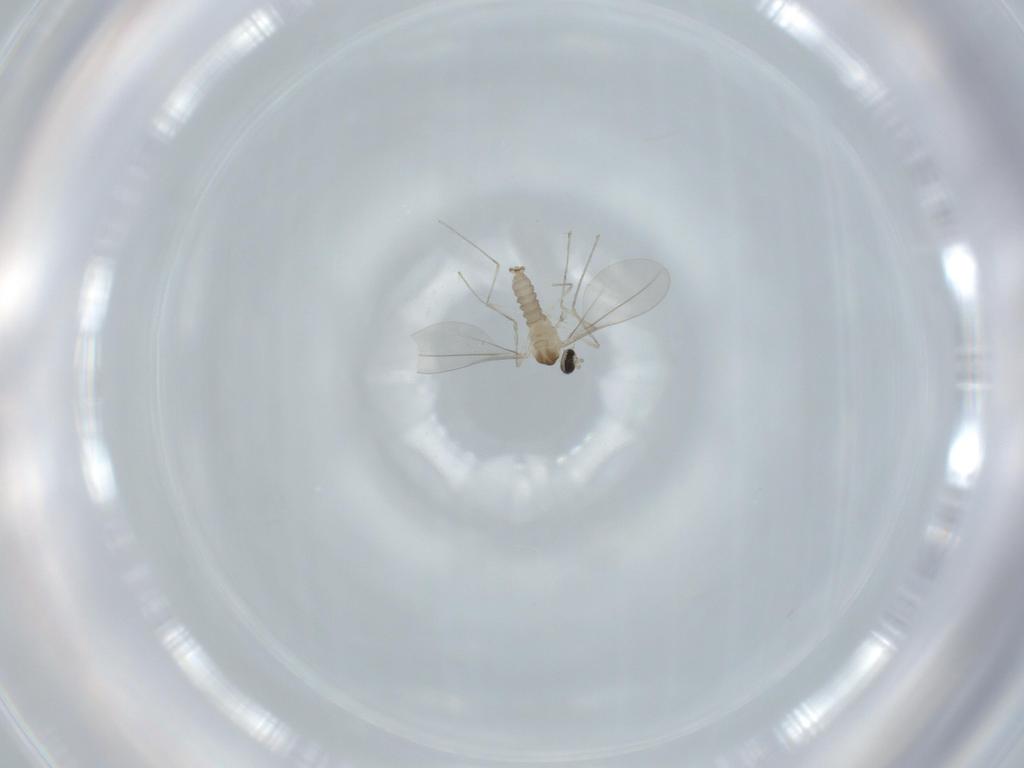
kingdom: Animalia
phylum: Arthropoda
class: Insecta
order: Diptera
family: Cecidomyiidae
